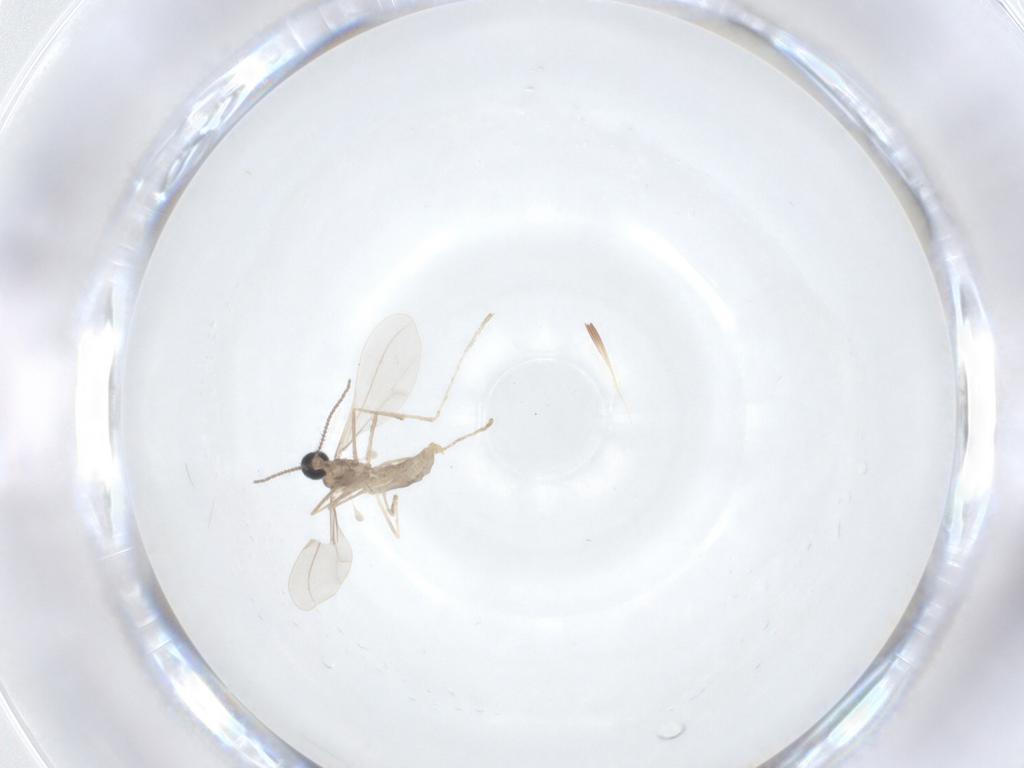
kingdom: Animalia
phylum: Arthropoda
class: Insecta
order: Diptera
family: Cecidomyiidae
